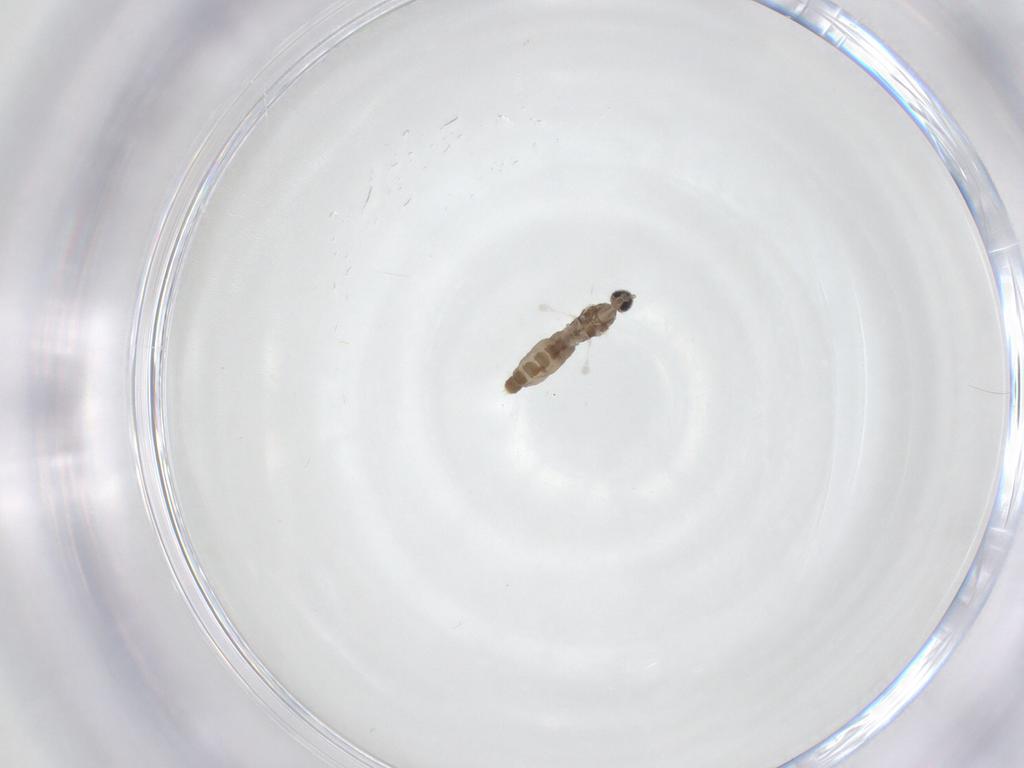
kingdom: Animalia
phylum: Arthropoda
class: Insecta
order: Diptera
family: Cecidomyiidae
